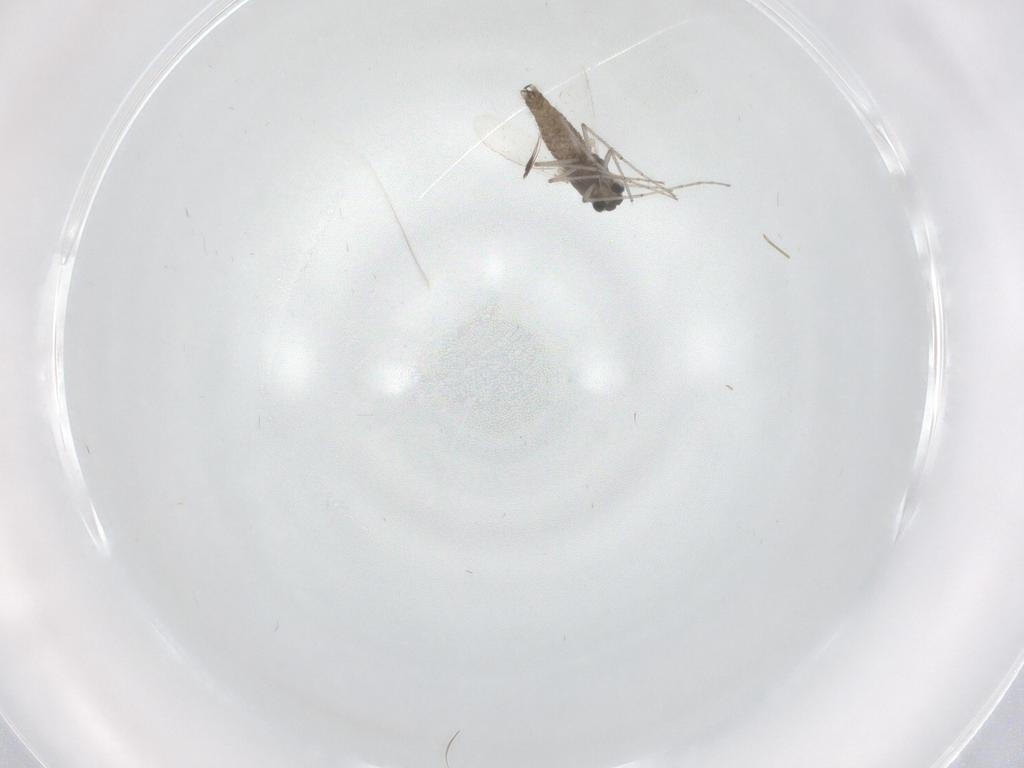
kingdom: Animalia
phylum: Arthropoda
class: Insecta
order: Diptera
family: Chironomidae
